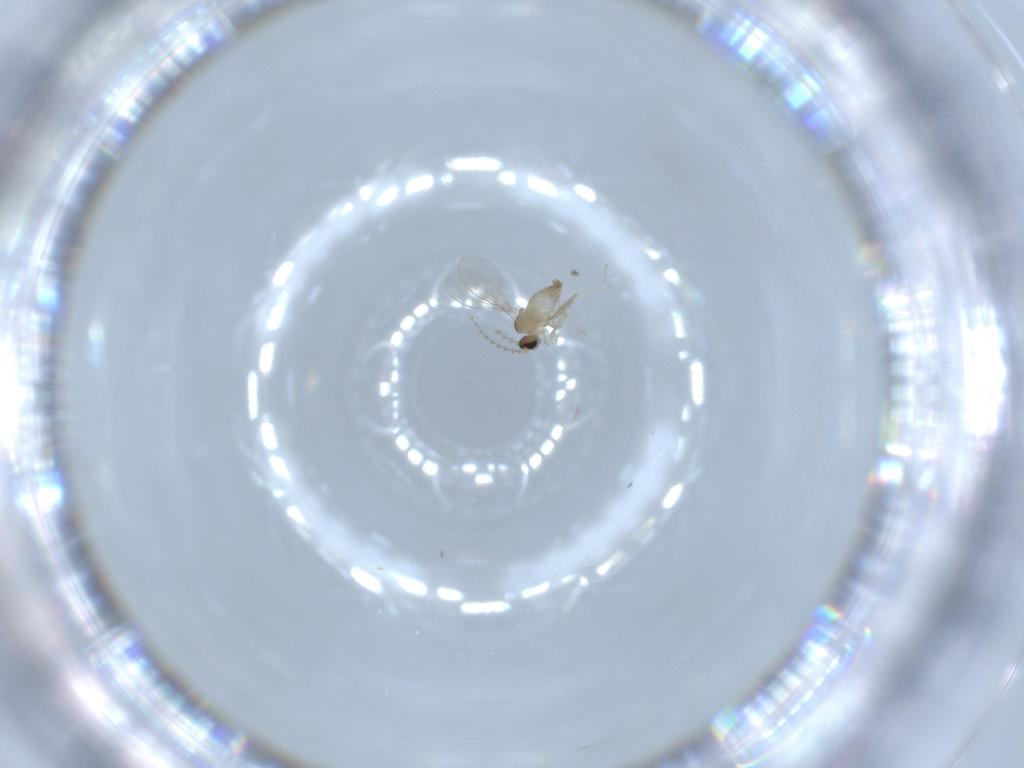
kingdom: Animalia
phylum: Arthropoda
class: Insecta
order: Diptera
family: Cecidomyiidae
